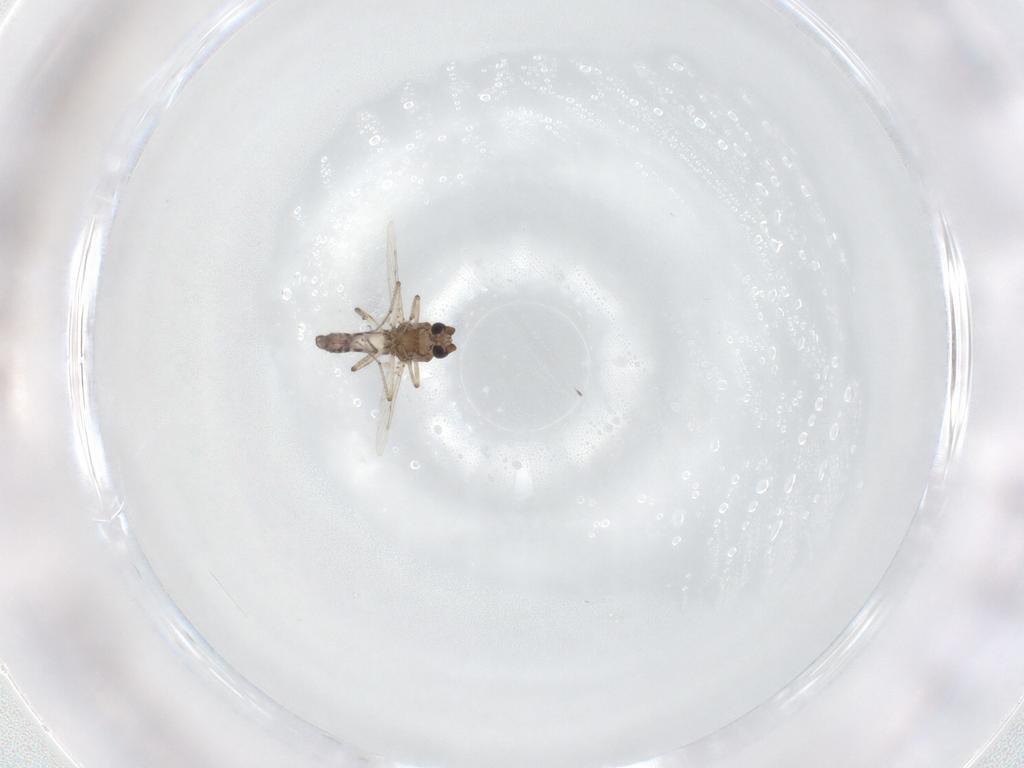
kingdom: Animalia
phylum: Arthropoda
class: Insecta
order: Diptera
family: Ceratopogonidae
